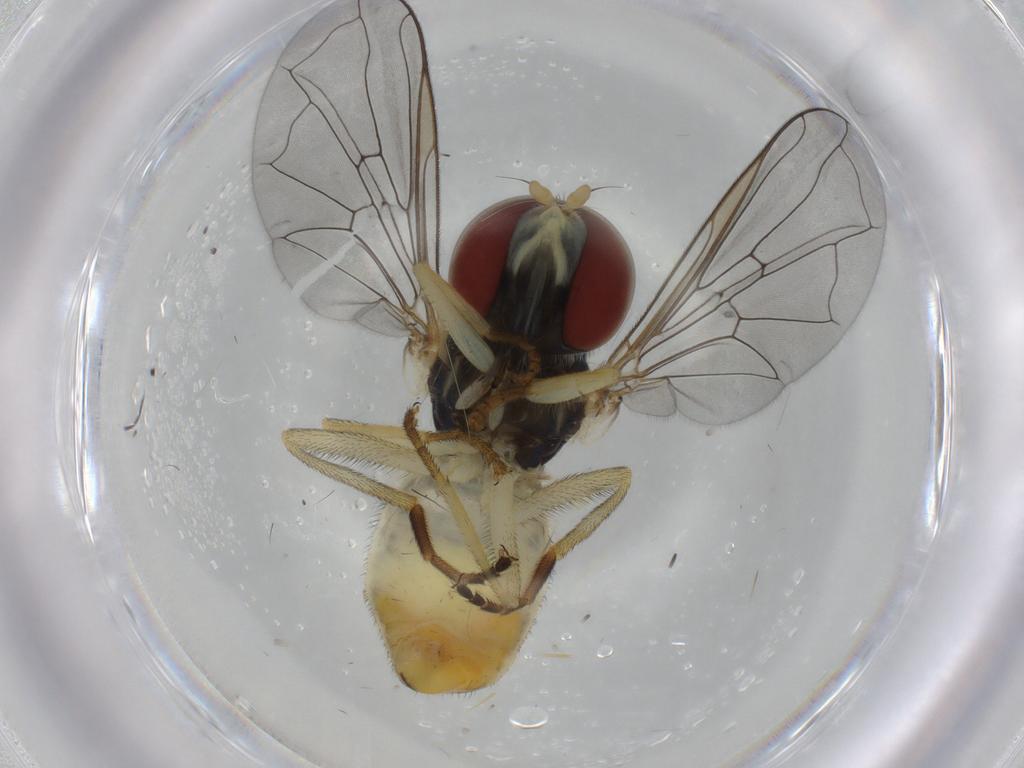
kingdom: Animalia
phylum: Arthropoda
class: Insecta
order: Diptera
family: Syrphidae
